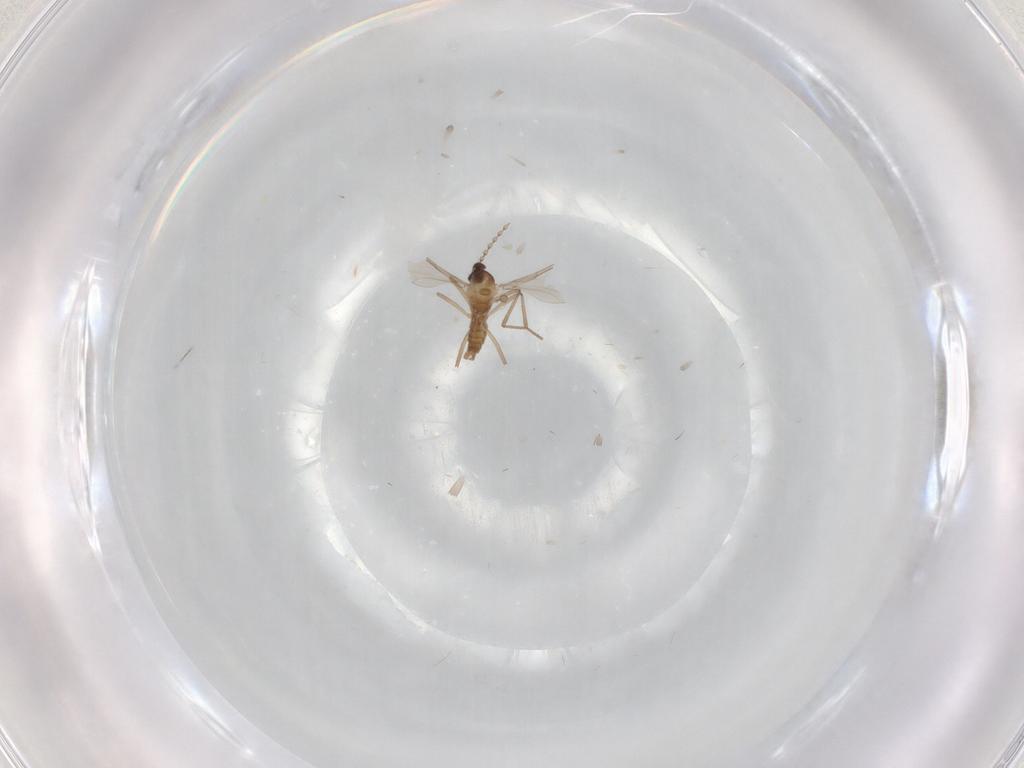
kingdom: Animalia
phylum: Arthropoda
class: Insecta
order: Diptera
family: Cecidomyiidae
